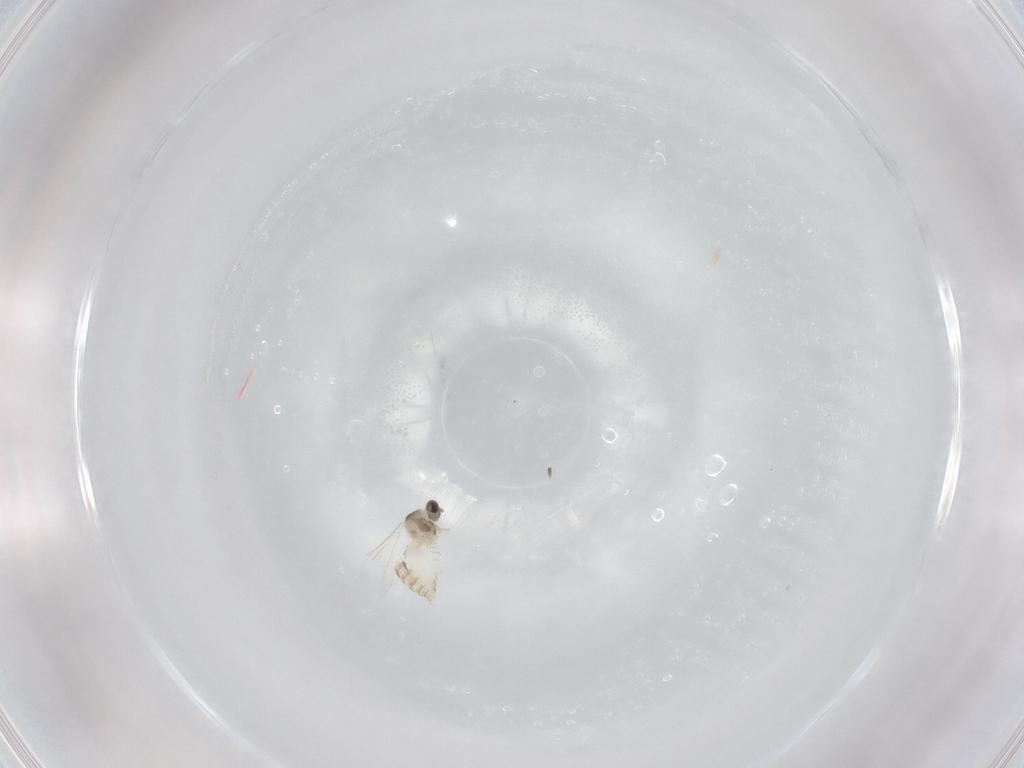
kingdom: Animalia
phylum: Arthropoda
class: Insecta
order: Diptera
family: Cecidomyiidae
